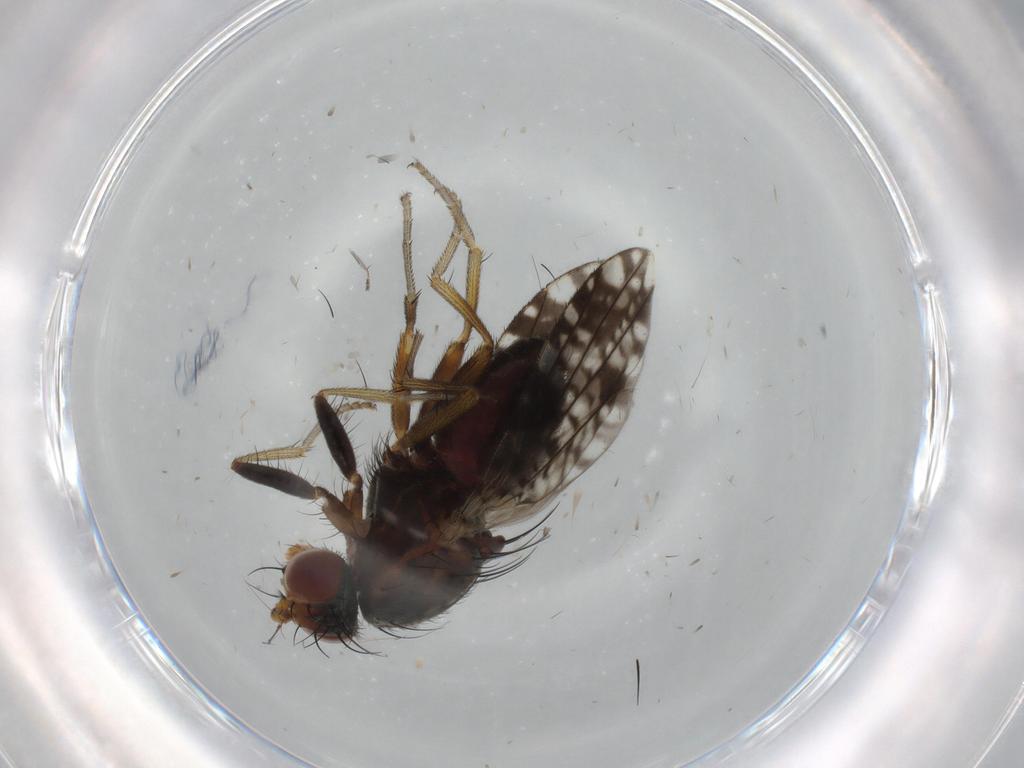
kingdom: Animalia
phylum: Arthropoda
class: Insecta
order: Diptera
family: Tephritidae
